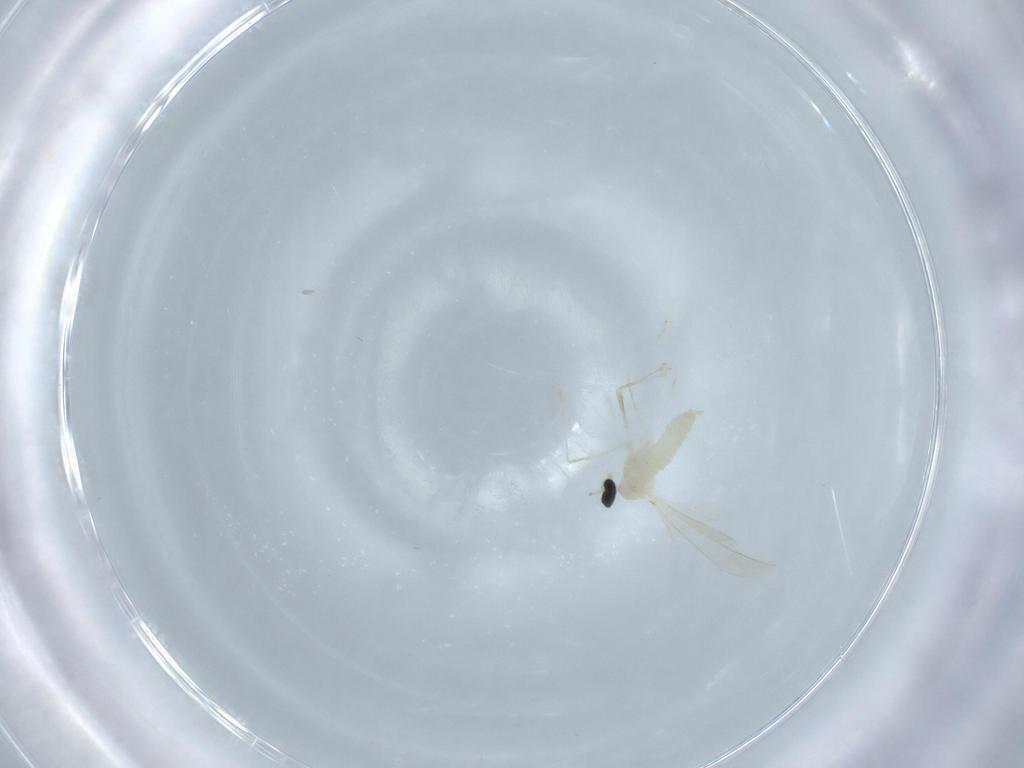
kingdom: Animalia
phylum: Arthropoda
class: Insecta
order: Diptera
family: Cecidomyiidae
